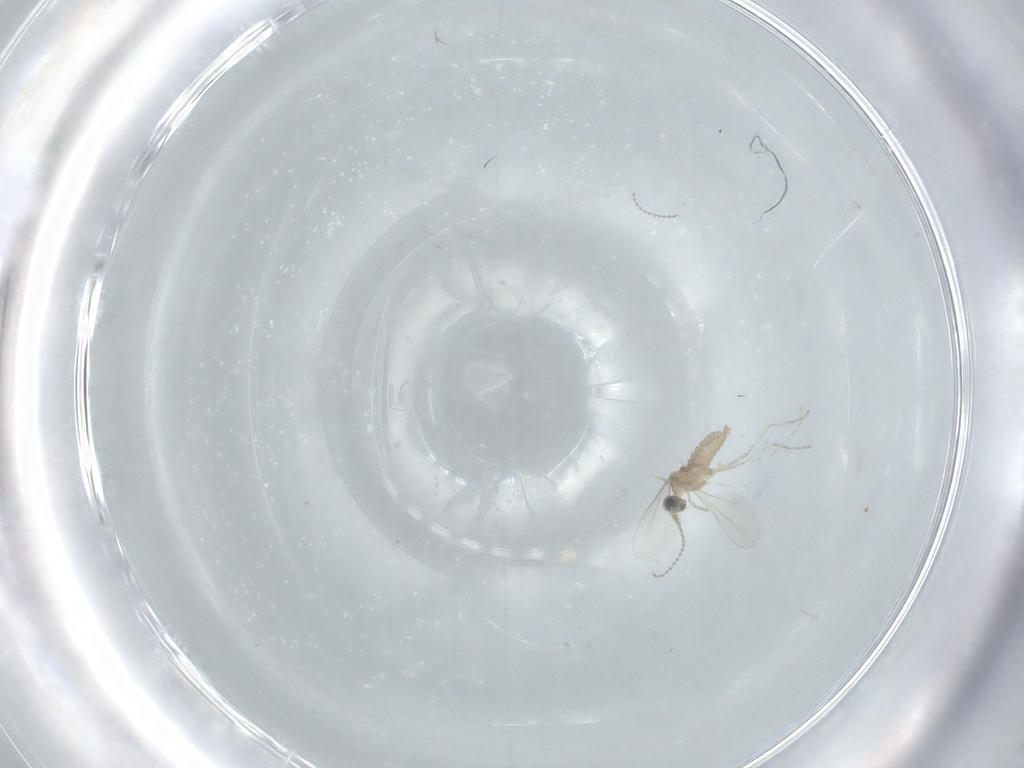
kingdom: Animalia
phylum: Arthropoda
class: Insecta
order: Diptera
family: Cecidomyiidae
